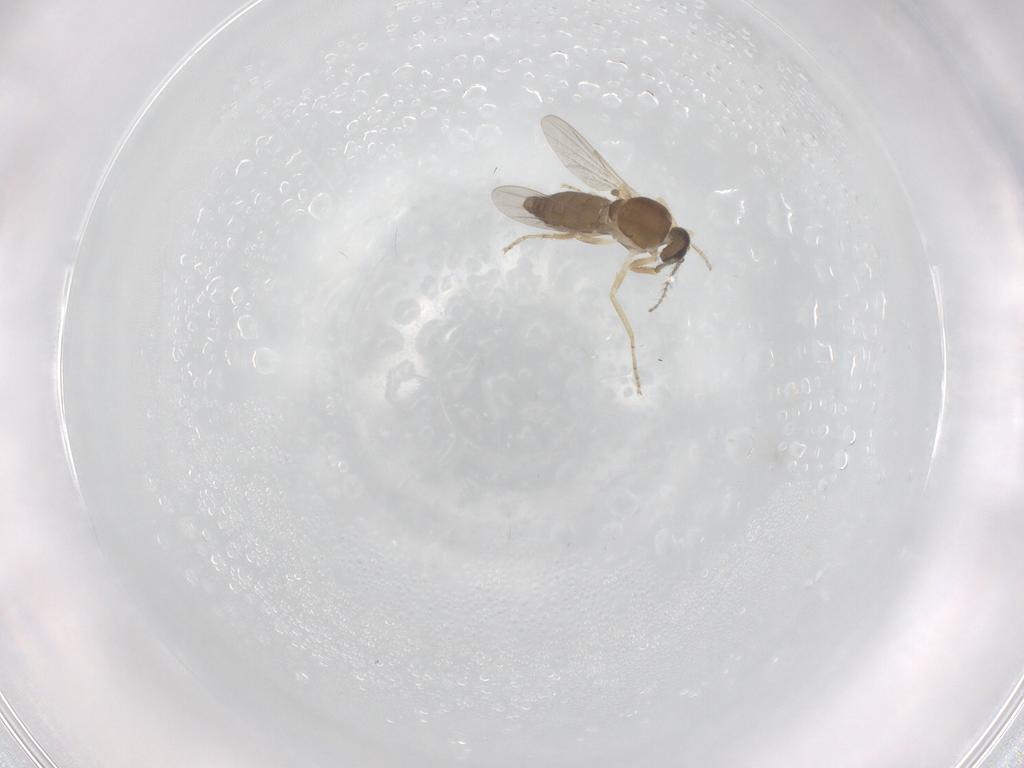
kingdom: Animalia
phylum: Arthropoda
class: Insecta
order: Diptera
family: Ceratopogonidae
